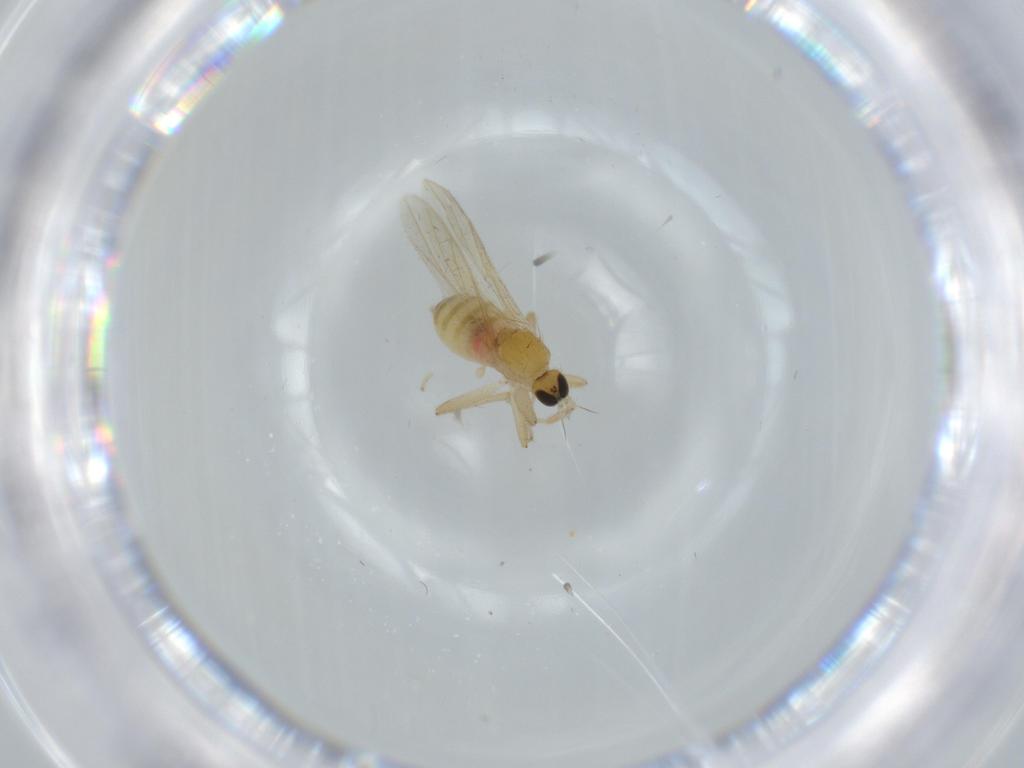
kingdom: Animalia
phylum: Arthropoda
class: Insecta
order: Diptera
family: Hybotidae
